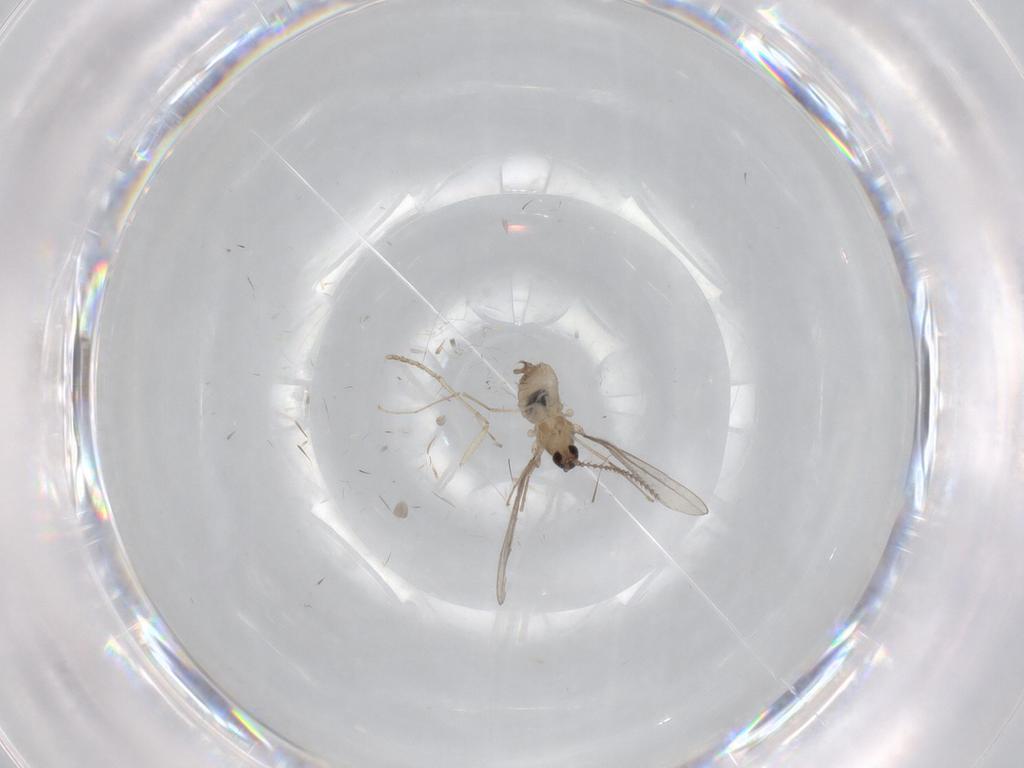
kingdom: Animalia
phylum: Arthropoda
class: Insecta
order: Diptera
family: Cecidomyiidae
